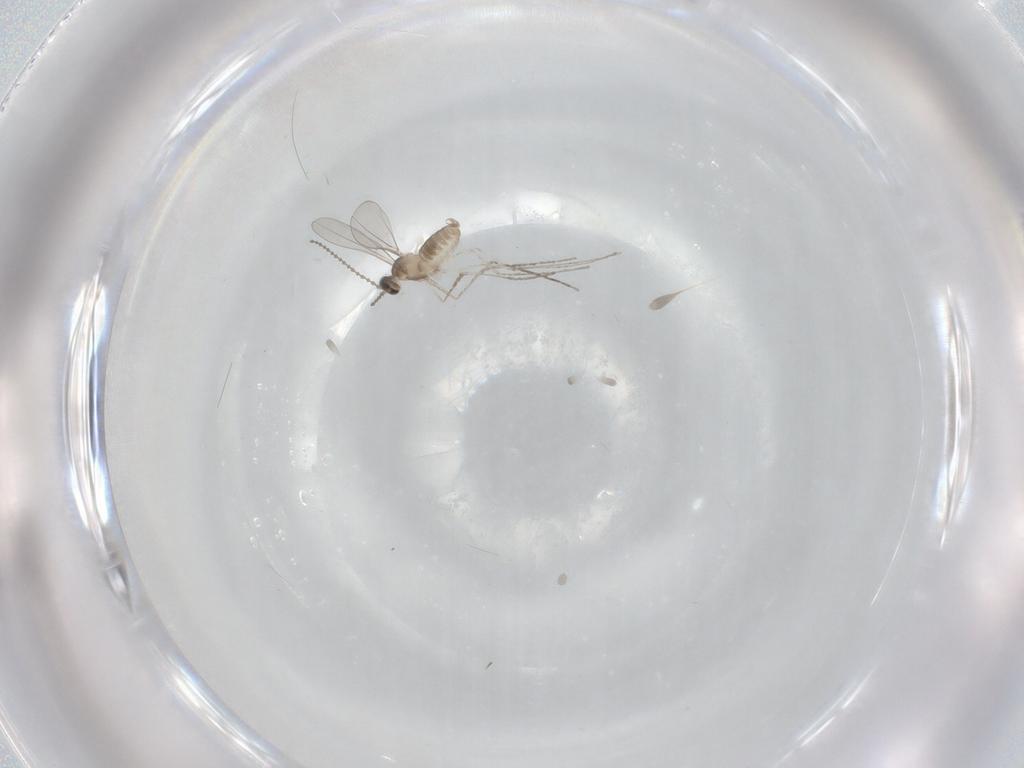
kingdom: Animalia
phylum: Arthropoda
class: Insecta
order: Diptera
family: Cecidomyiidae
